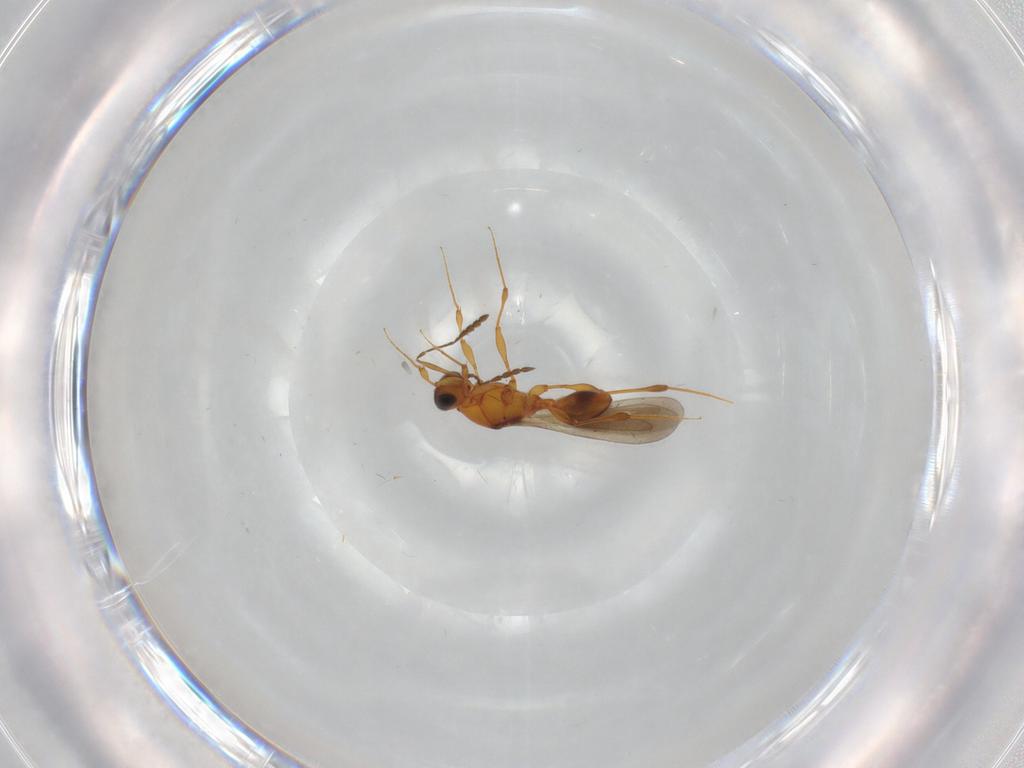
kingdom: Animalia
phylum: Arthropoda
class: Insecta
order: Hymenoptera
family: Platygastridae
